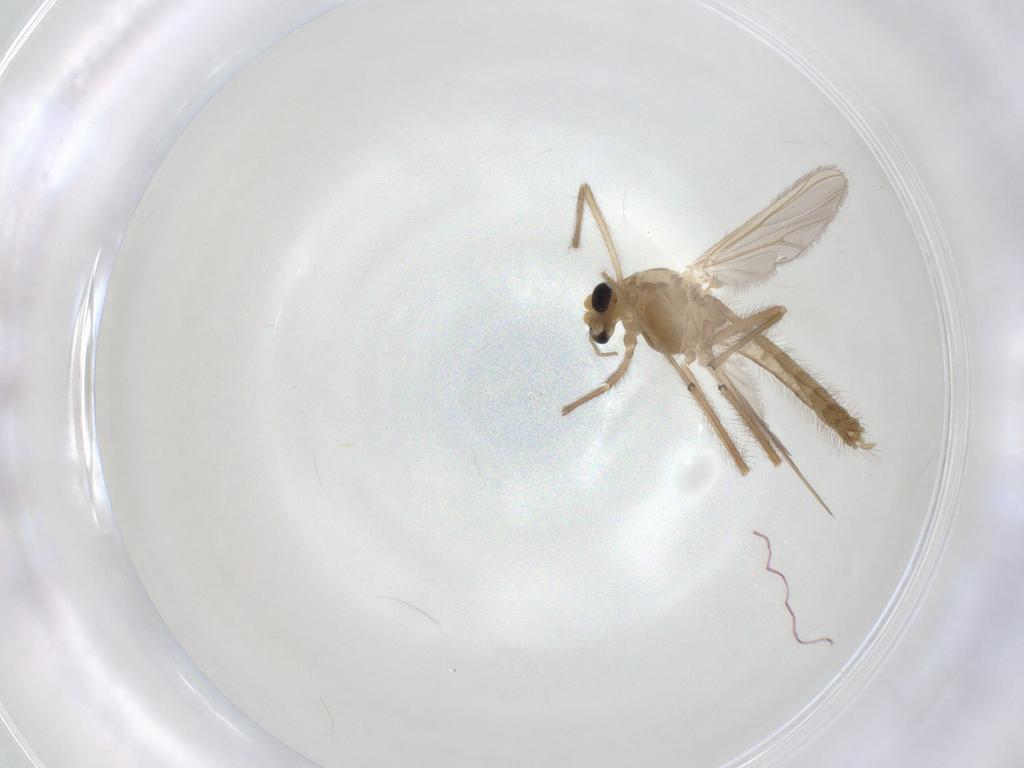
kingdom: Animalia
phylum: Arthropoda
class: Insecta
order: Diptera
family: Chironomidae
